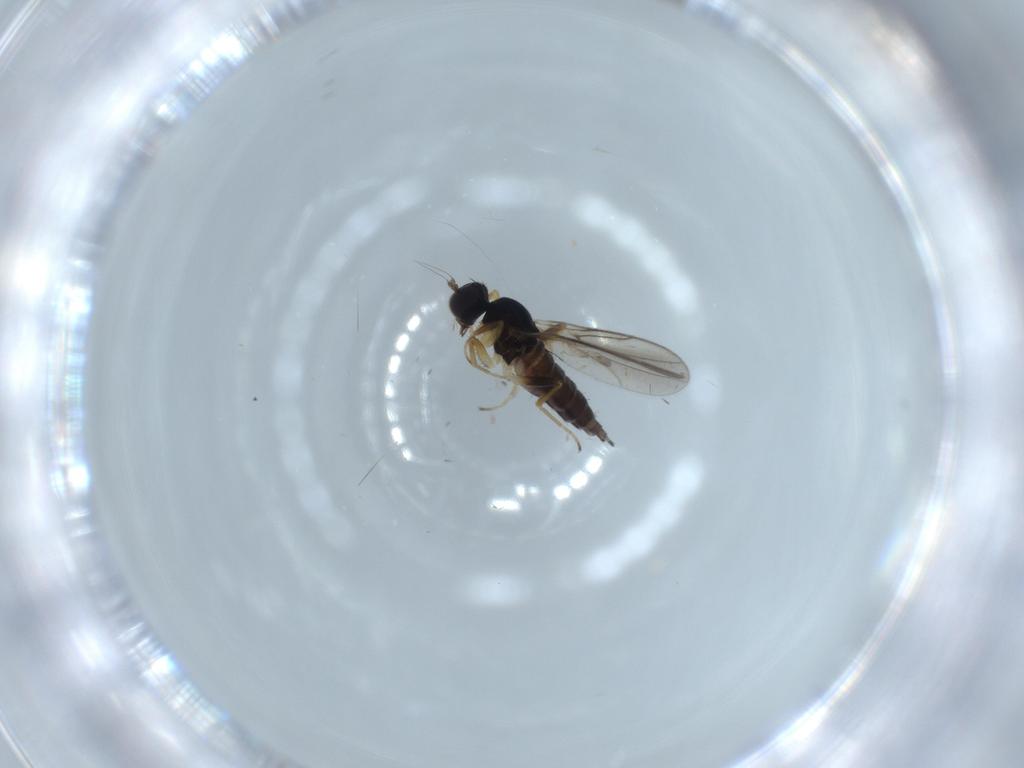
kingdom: Animalia
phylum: Arthropoda
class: Insecta
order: Diptera
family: Hybotidae
